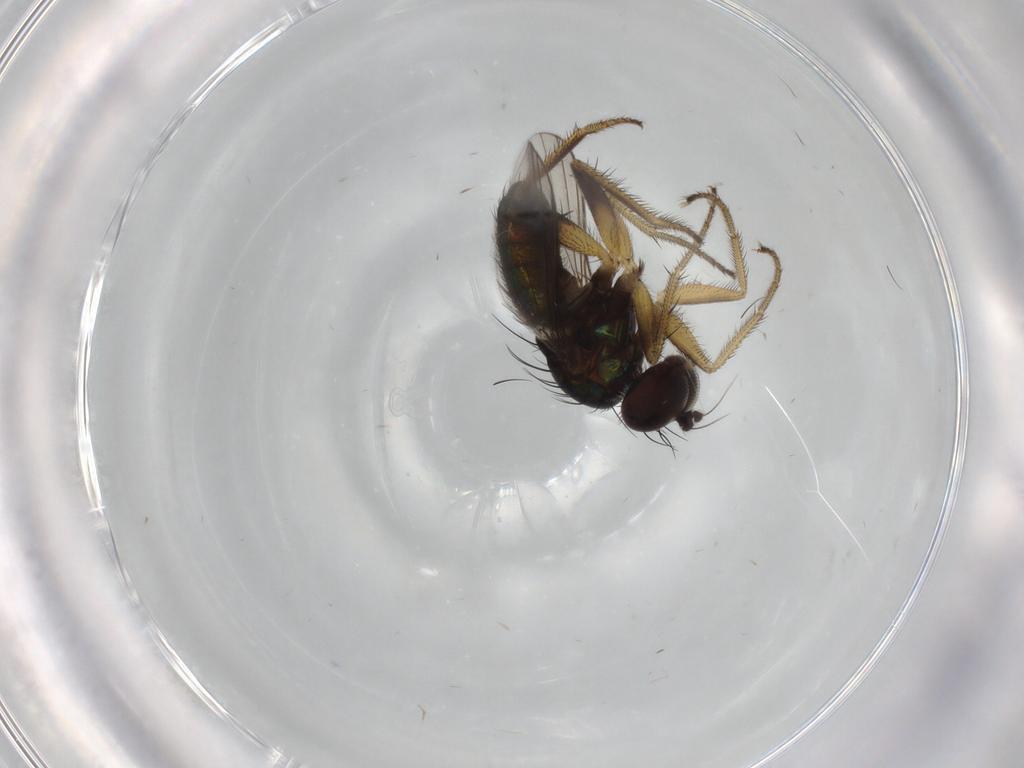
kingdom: Animalia
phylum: Arthropoda
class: Insecta
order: Diptera
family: Dolichopodidae
